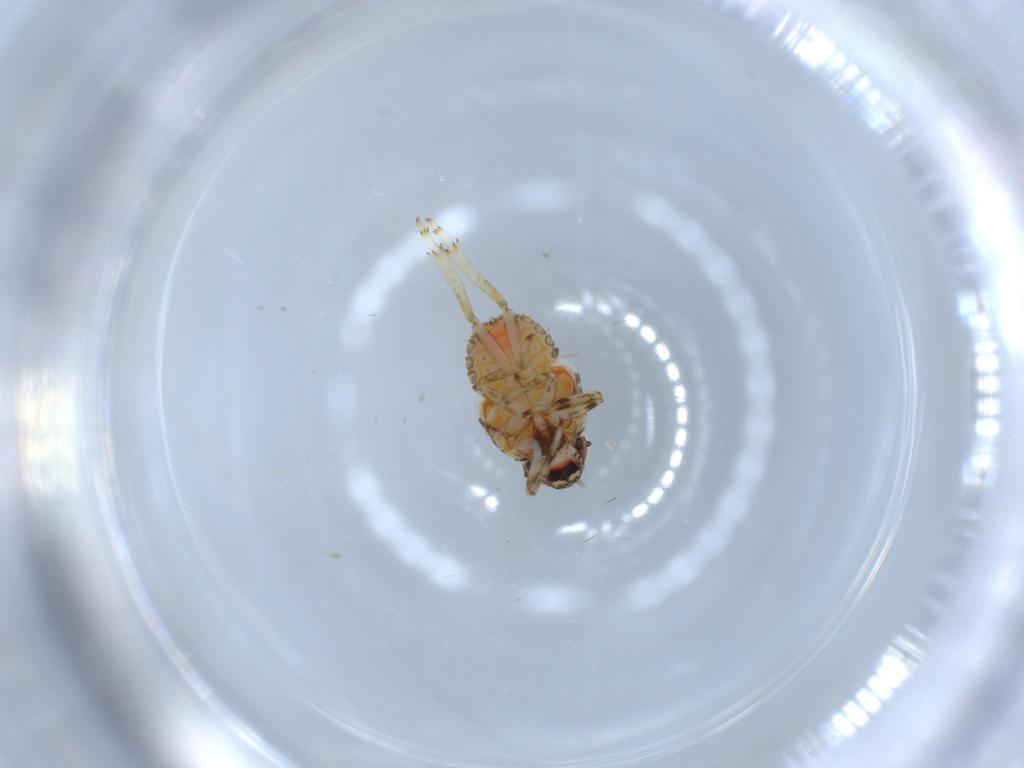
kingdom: Animalia
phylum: Arthropoda
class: Insecta
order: Hemiptera
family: Issidae
